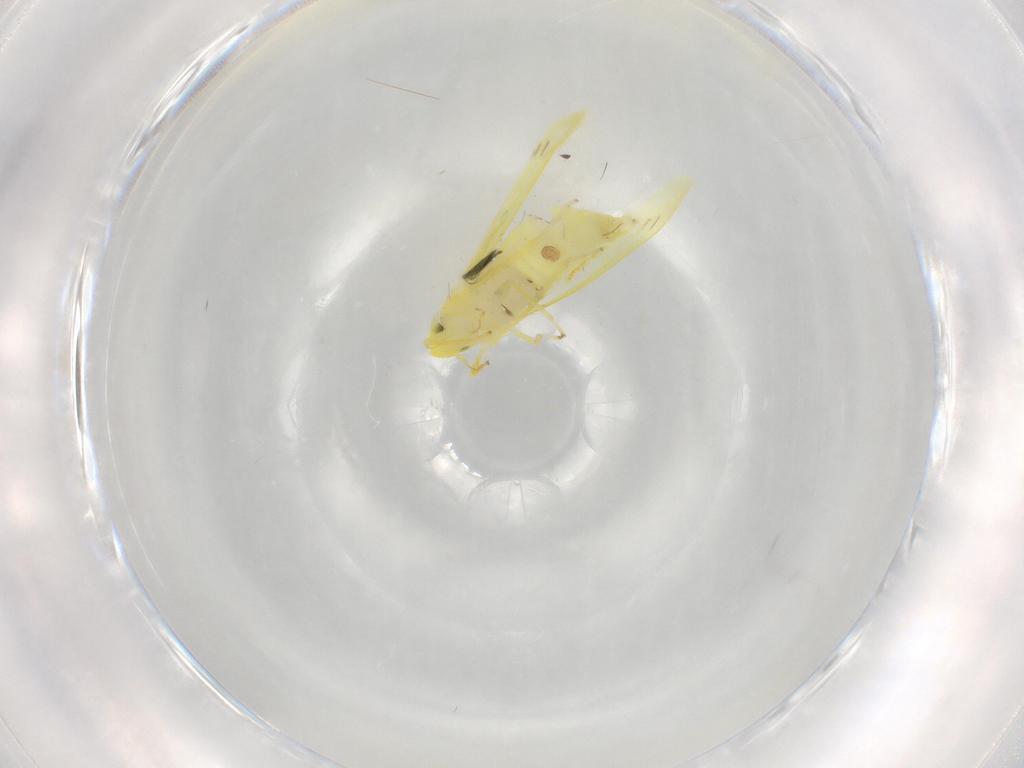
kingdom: Animalia
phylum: Arthropoda
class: Insecta
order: Hemiptera
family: Cicadellidae
